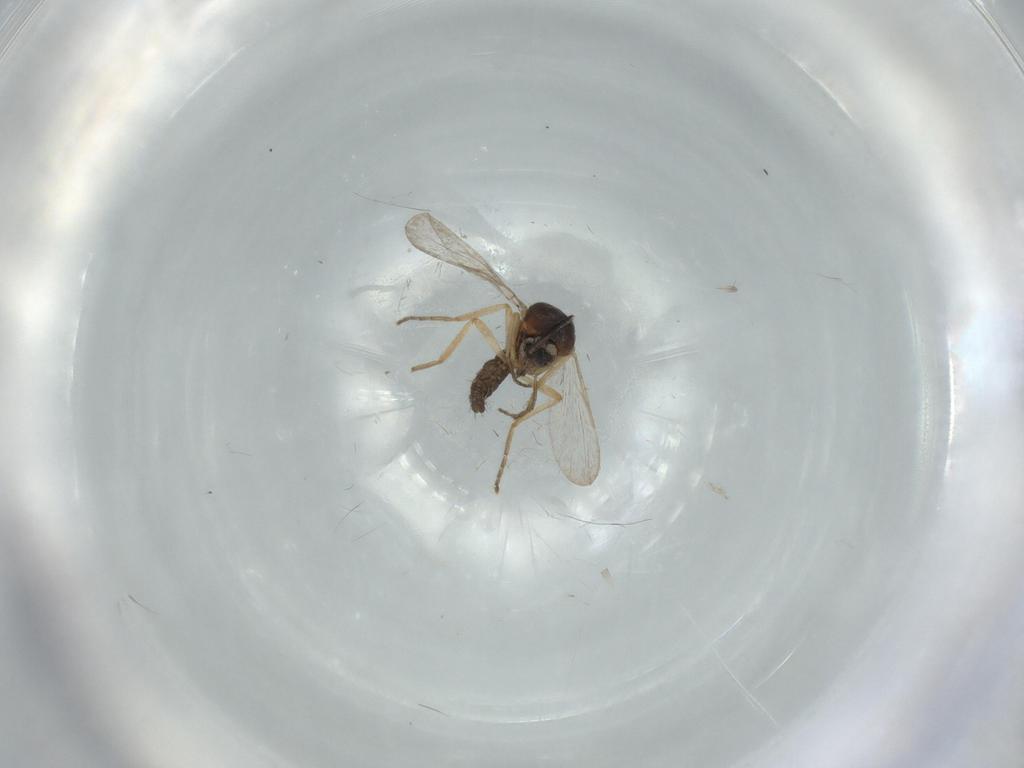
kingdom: Animalia
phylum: Arthropoda
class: Insecta
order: Diptera
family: Ceratopogonidae
